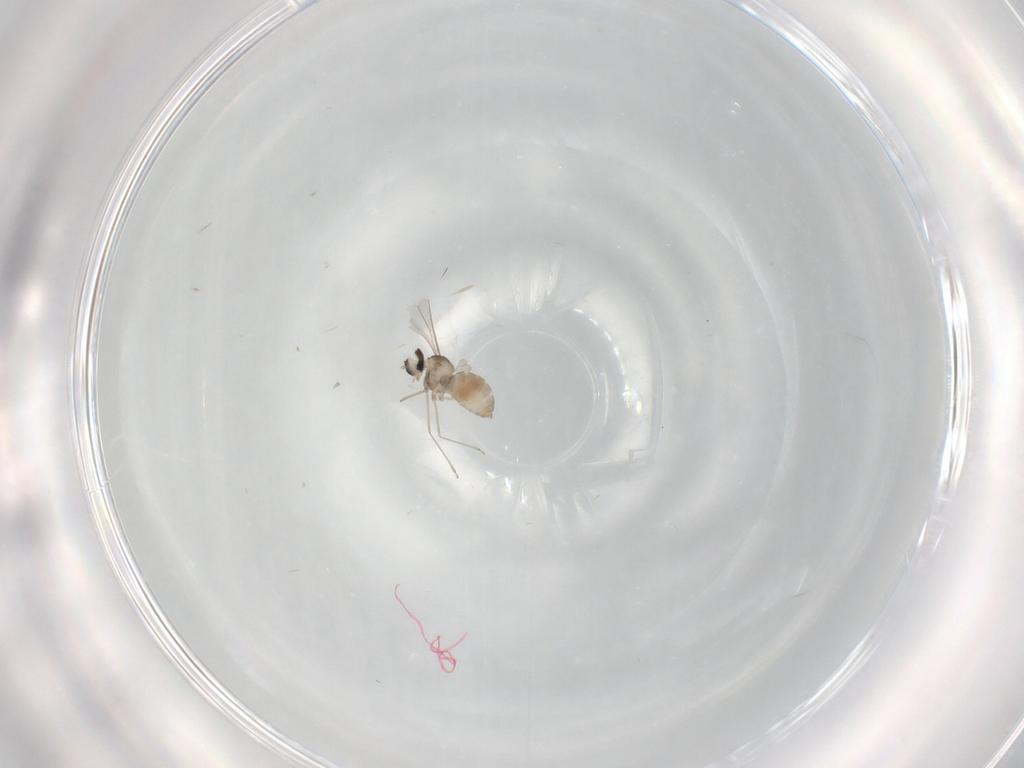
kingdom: Animalia
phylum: Arthropoda
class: Insecta
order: Diptera
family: Cecidomyiidae
